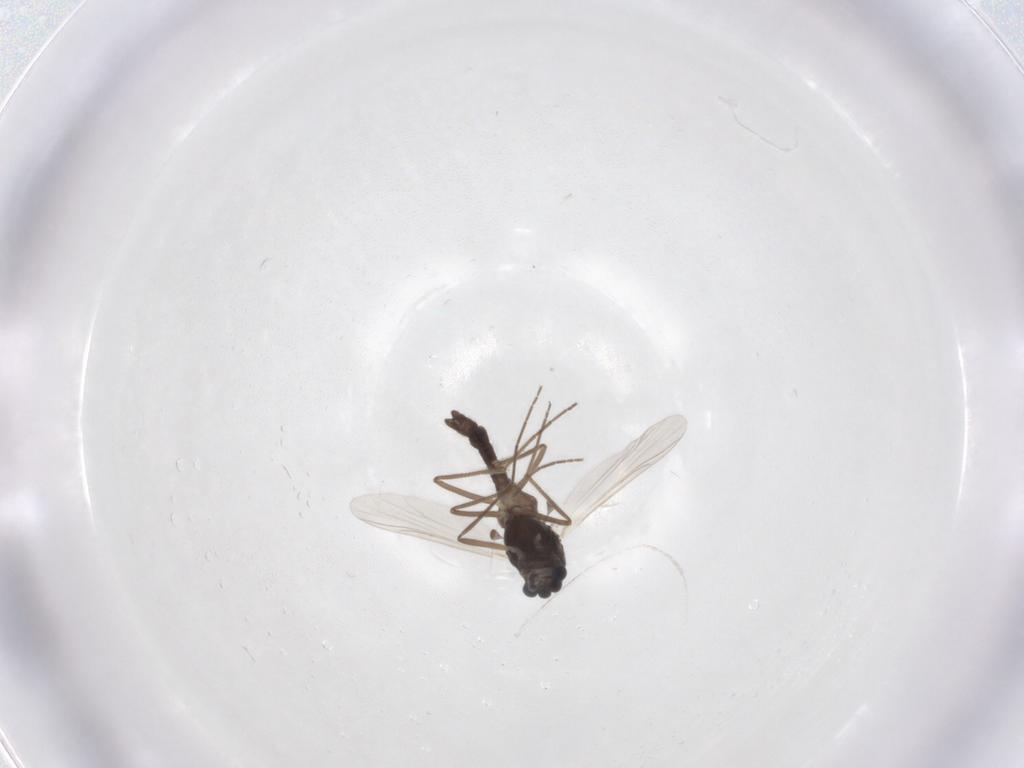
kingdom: Animalia
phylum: Arthropoda
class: Insecta
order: Diptera
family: Chironomidae
